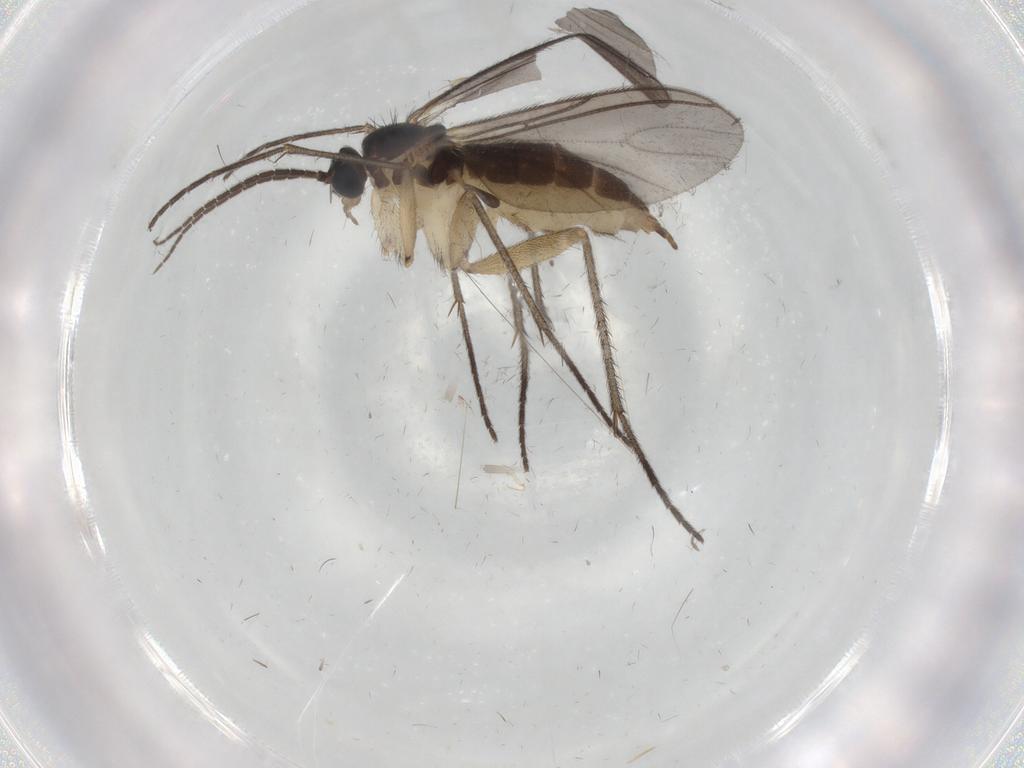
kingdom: Animalia
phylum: Arthropoda
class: Insecta
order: Diptera
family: Sciaridae
